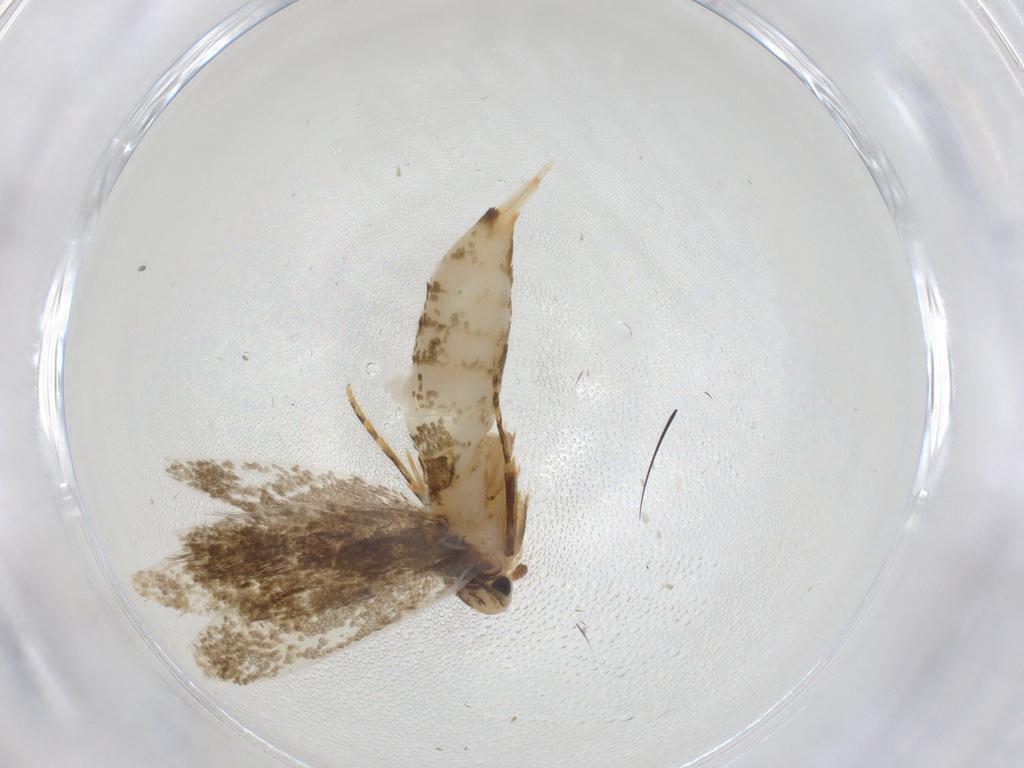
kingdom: Animalia
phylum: Arthropoda
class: Insecta
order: Lepidoptera
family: Tineidae
